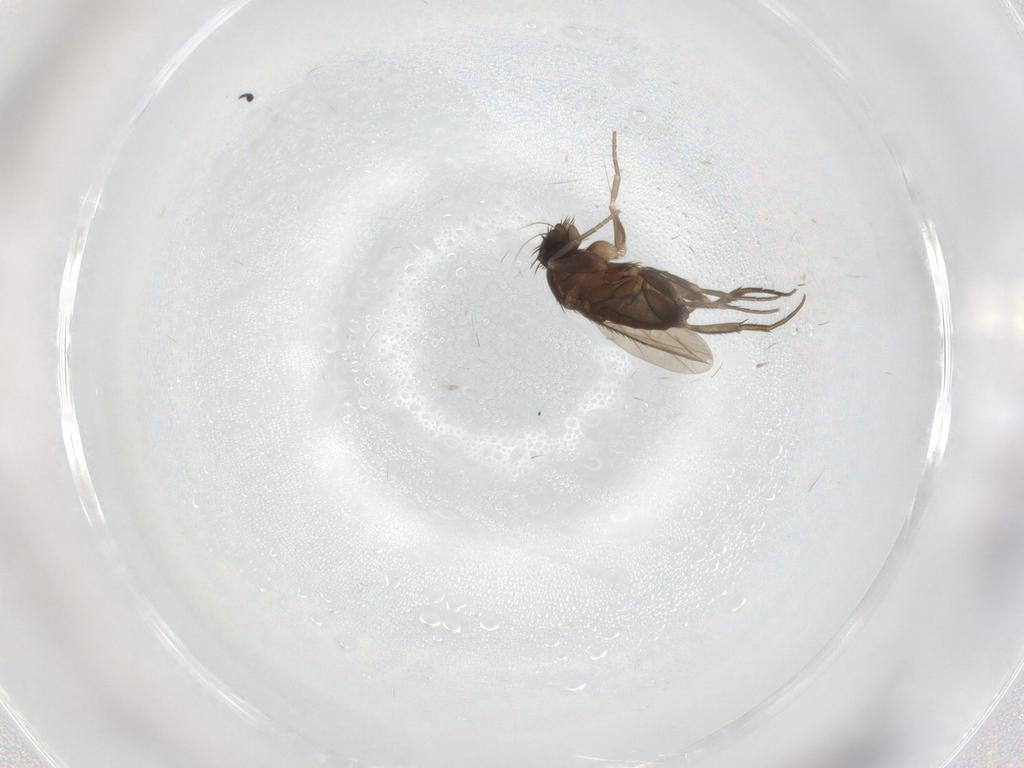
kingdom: Animalia
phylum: Arthropoda
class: Insecta
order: Diptera
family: Phoridae
